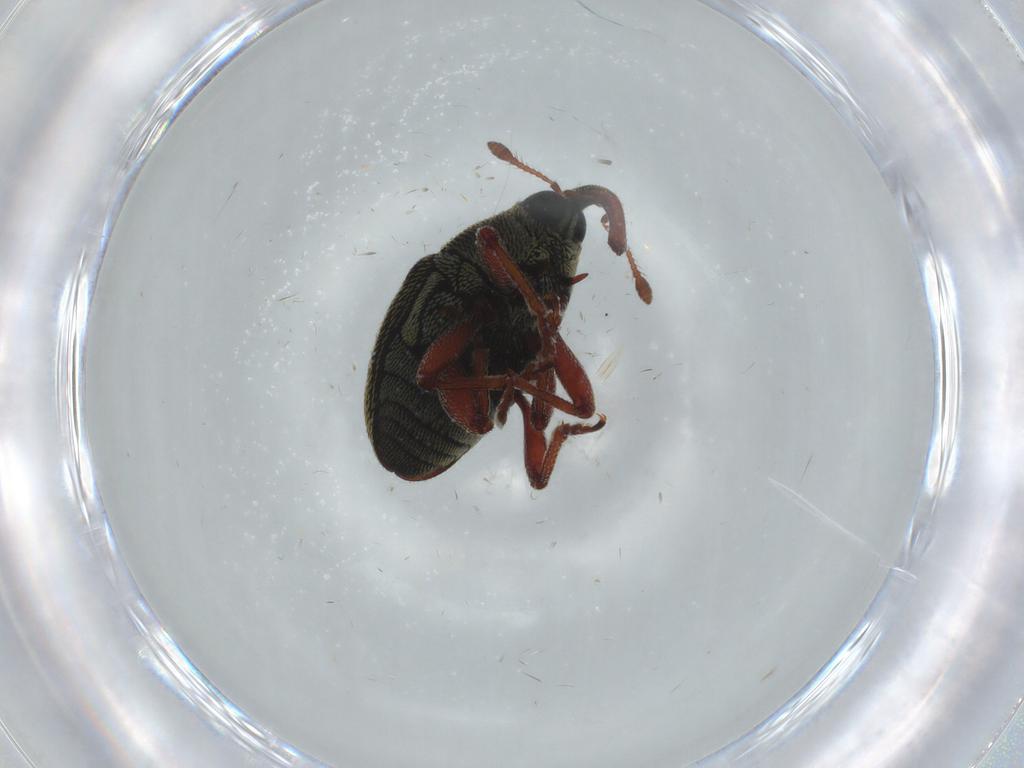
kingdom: Animalia
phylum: Arthropoda
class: Insecta
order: Coleoptera
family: Curculionidae
